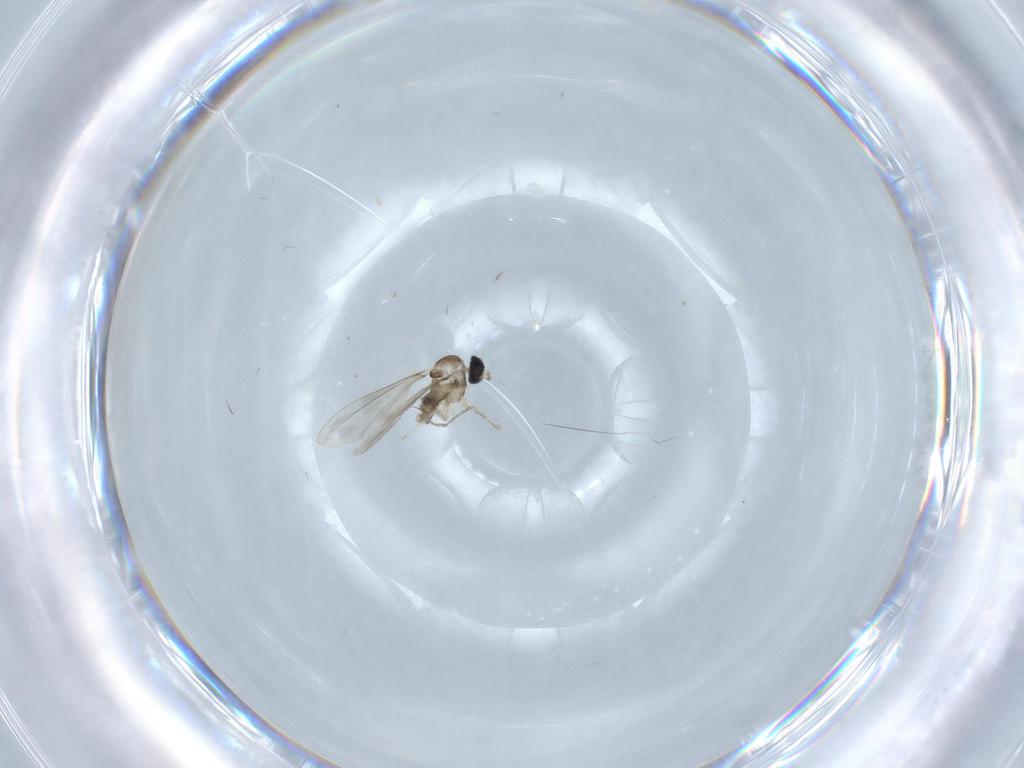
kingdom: Animalia
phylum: Arthropoda
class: Insecta
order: Diptera
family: Cecidomyiidae
